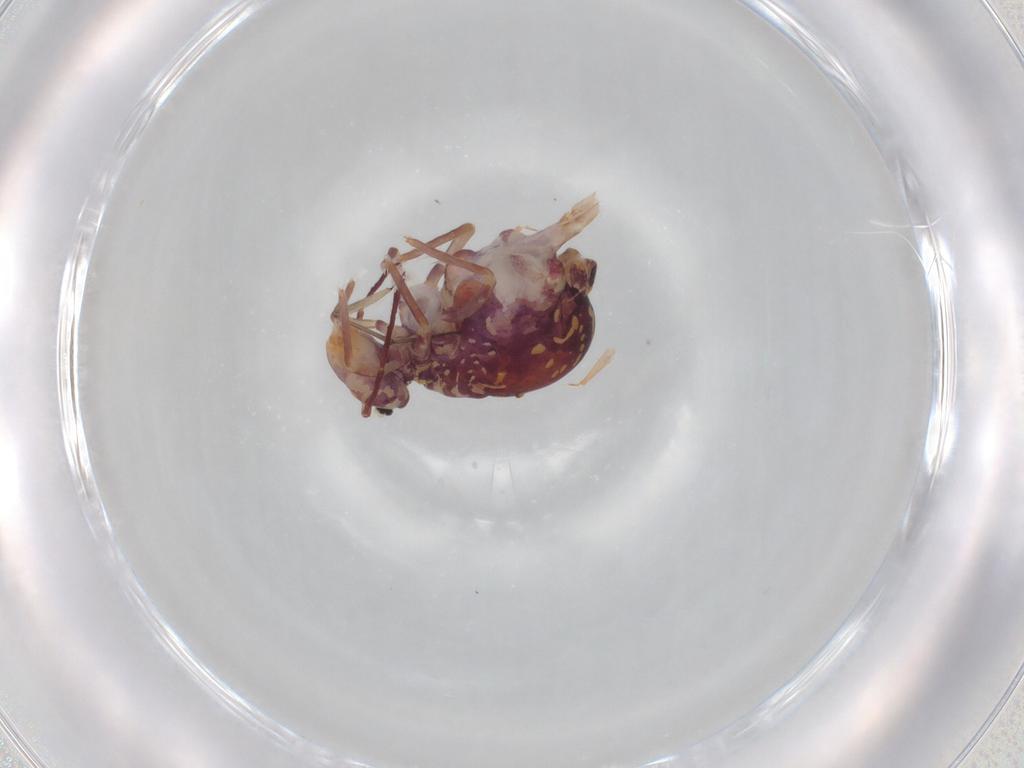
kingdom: Animalia
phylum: Arthropoda
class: Collembola
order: Symphypleona
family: Dicyrtomidae
